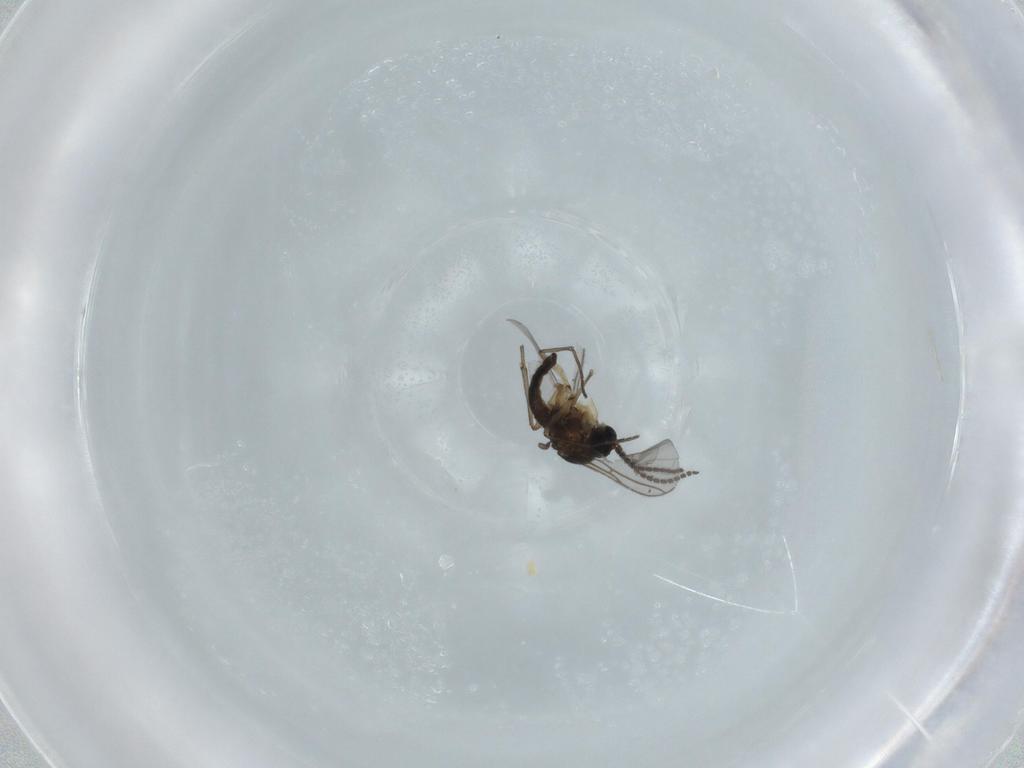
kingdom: Animalia
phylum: Arthropoda
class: Insecta
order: Diptera
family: Sciaridae
